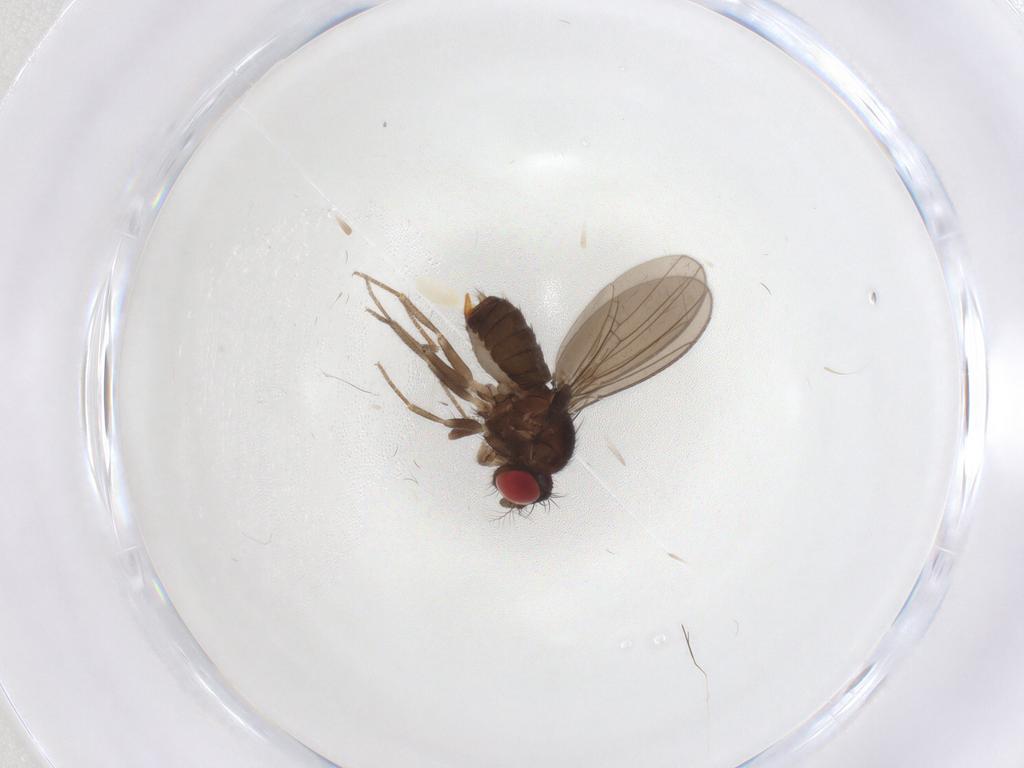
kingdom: Animalia
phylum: Arthropoda
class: Insecta
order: Diptera
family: Drosophilidae
